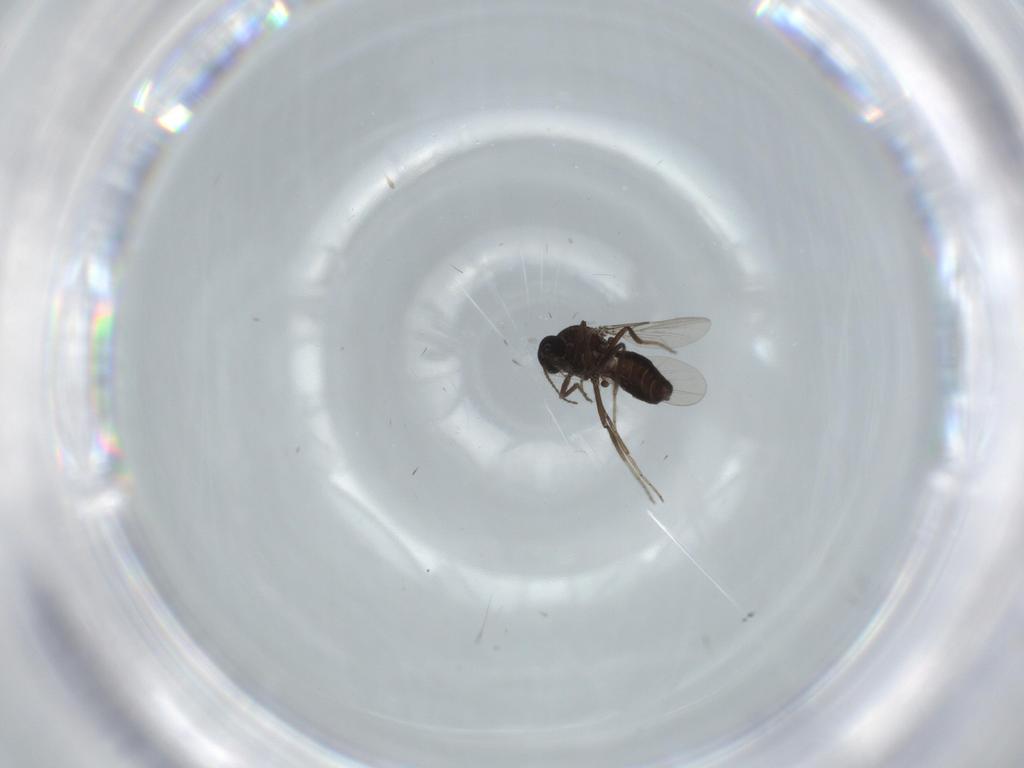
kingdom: Animalia
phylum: Arthropoda
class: Insecta
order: Diptera
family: Ceratopogonidae
